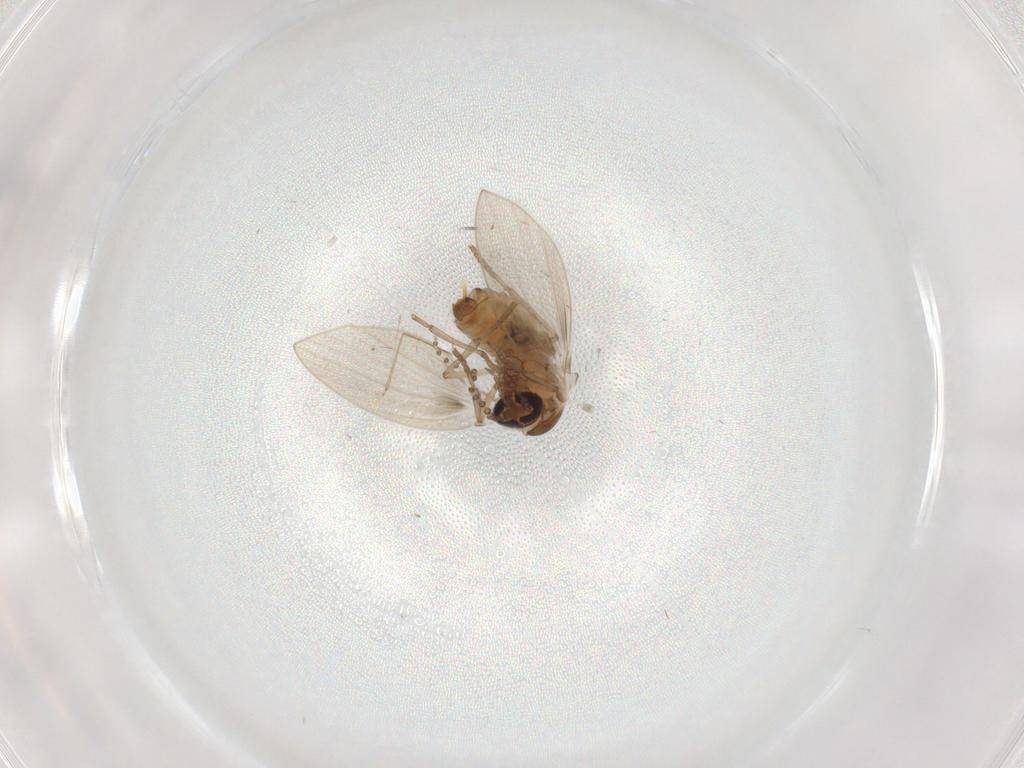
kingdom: Animalia
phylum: Arthropoda
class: Insecta
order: Diptera
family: Psychodidae
